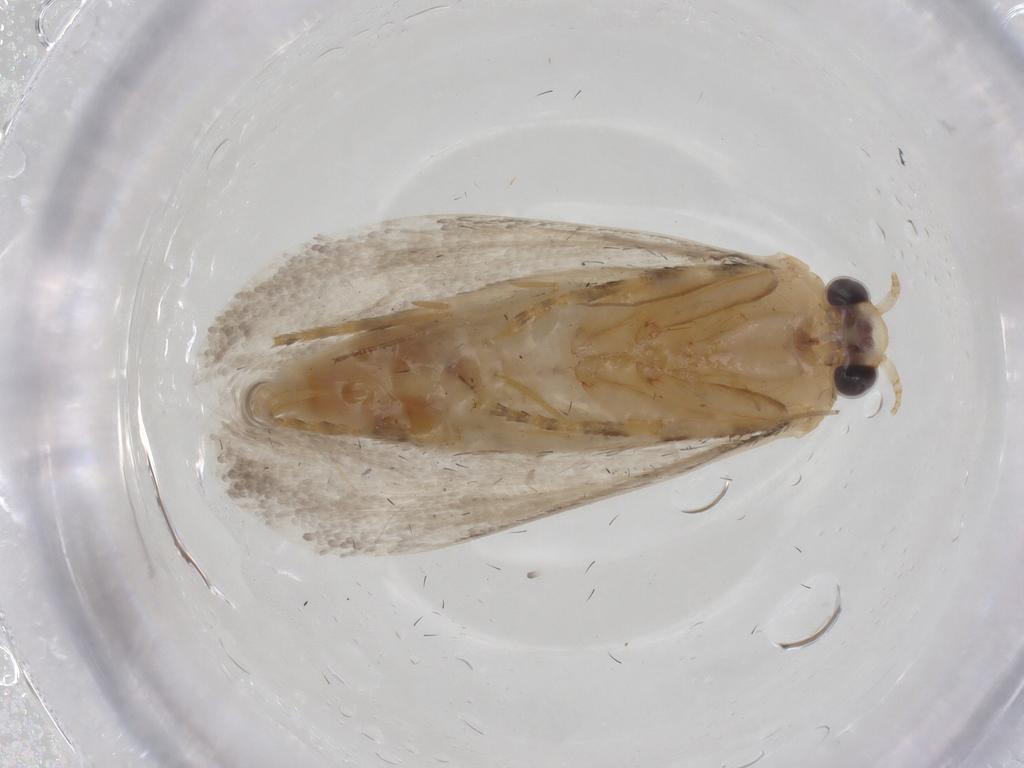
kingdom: Animalia
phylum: Arthropoda
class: Insecta
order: Lepidoptera
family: Tortricidae
